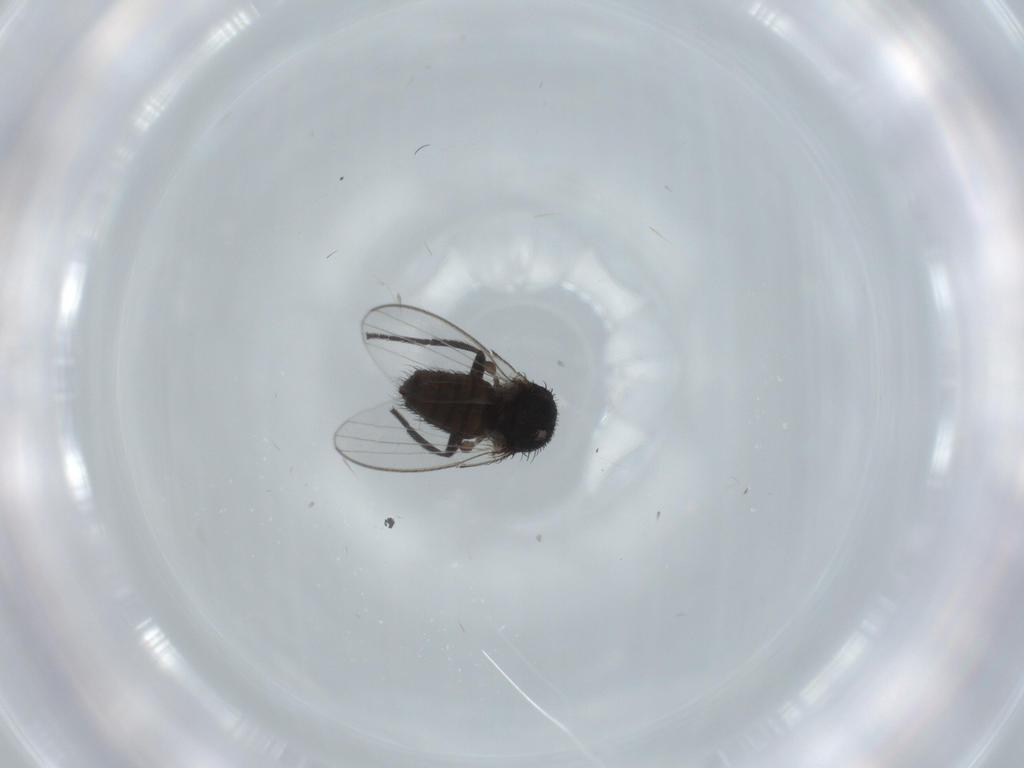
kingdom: Animalia
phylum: Arthropoda
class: Insecta
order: Diptera
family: Milichiidae
